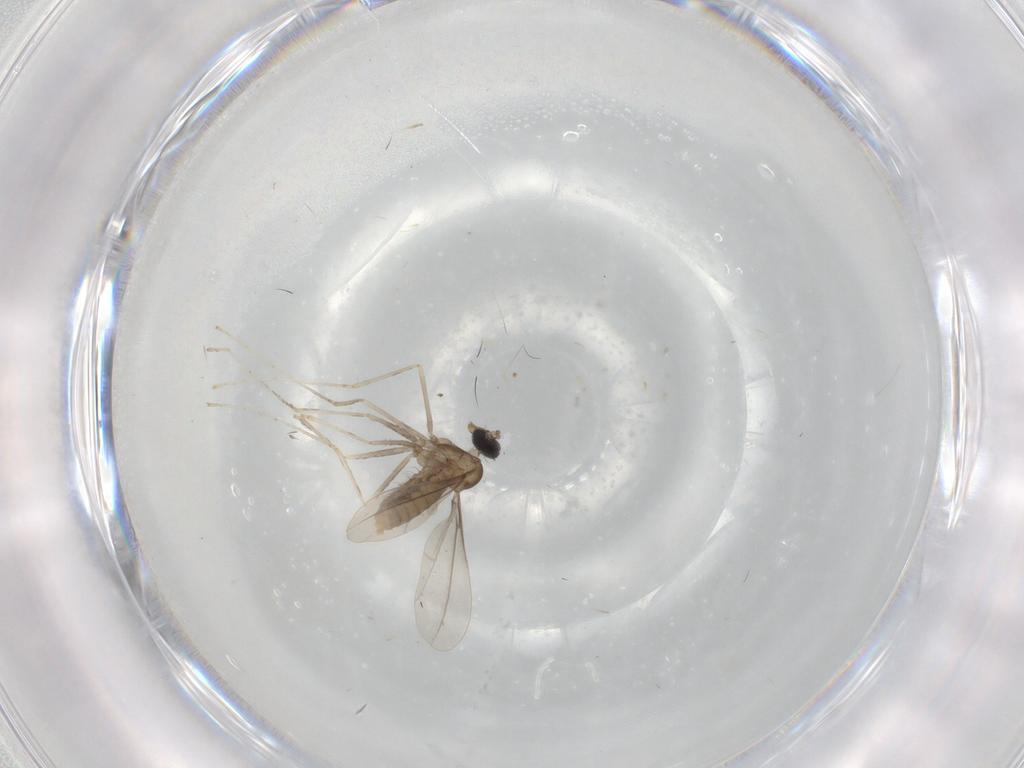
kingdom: Animalia
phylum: Arthropoda
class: Insecta
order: Diptera
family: Cecidomyiidae
